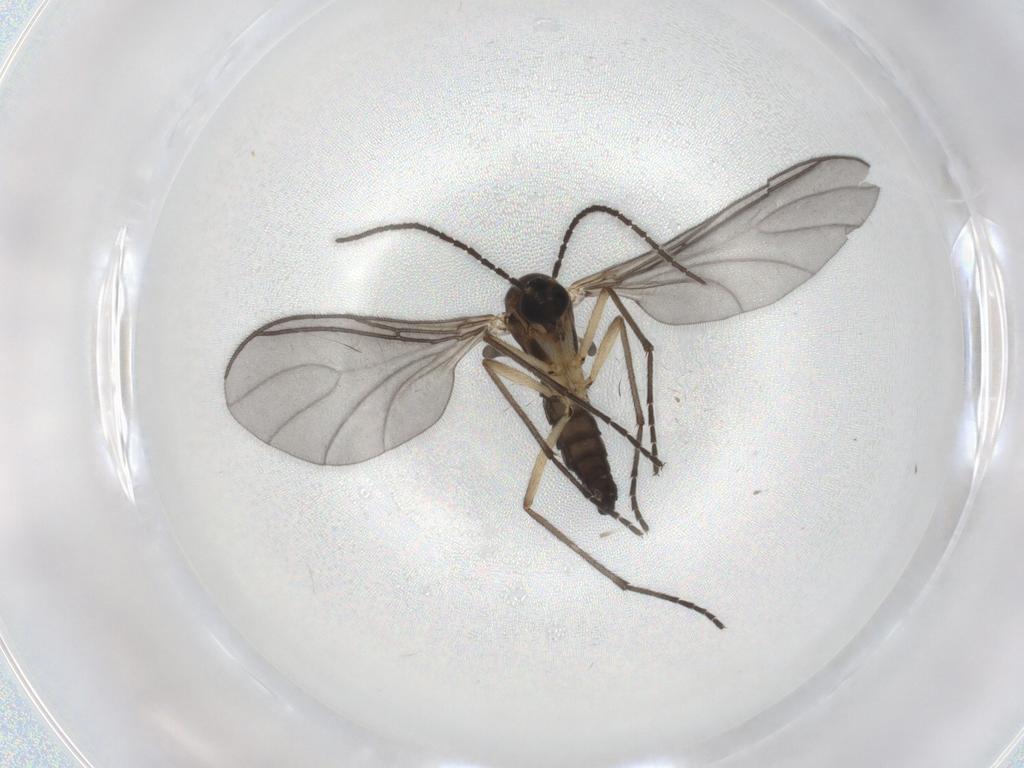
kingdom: Animalia
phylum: Arthropoda
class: Insecta
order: Diptera
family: Sciaridae
